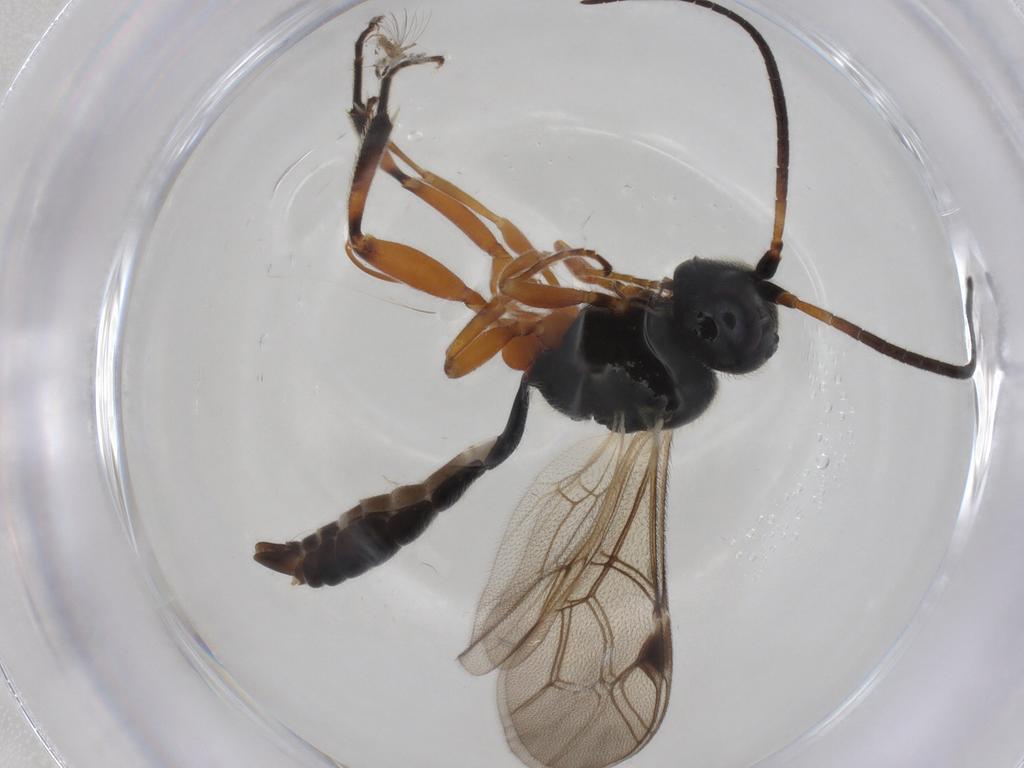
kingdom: Animalia
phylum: Arthropoda
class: Insecta
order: Hymenoptera
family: Ichneumonidae
